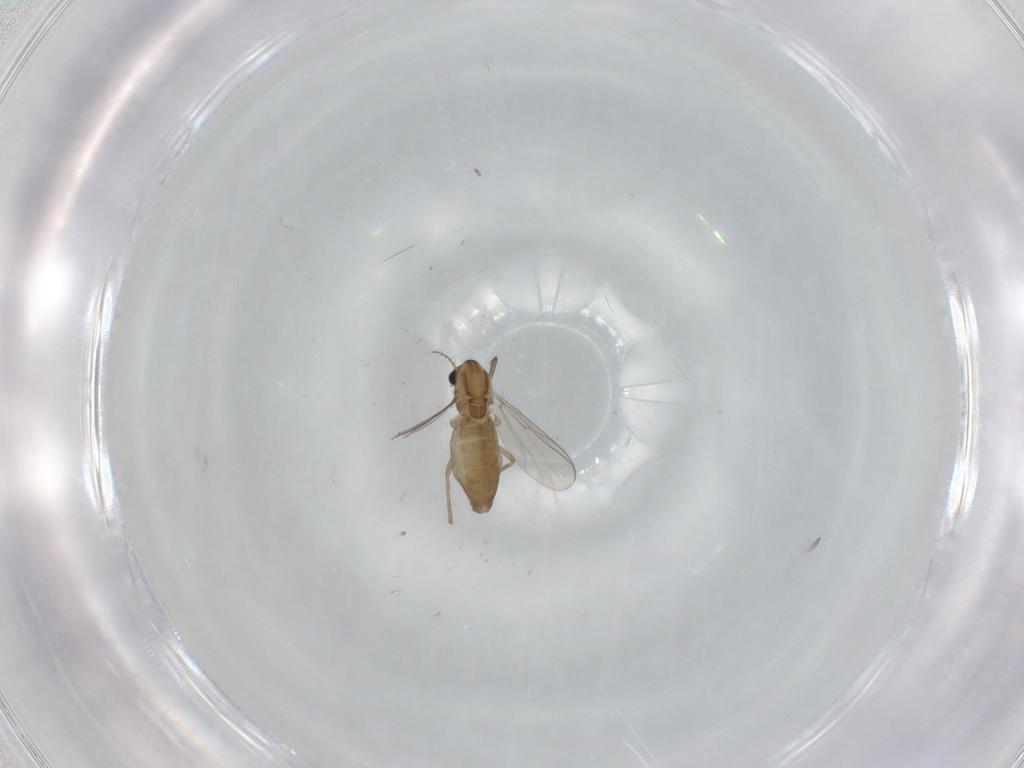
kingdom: Animalia
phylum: Arthropoda
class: Insecta
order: Diptera
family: Chironomidae
